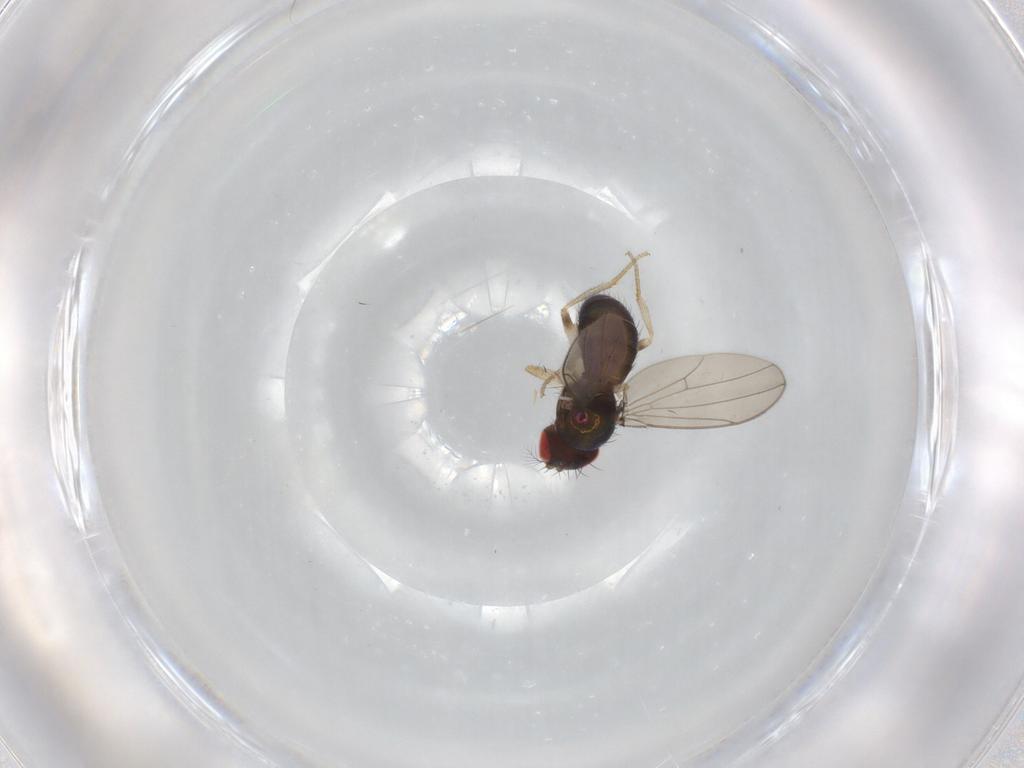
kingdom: Animalia
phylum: Arthropoda
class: Insecta
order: Diptera
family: Drosophilidae
